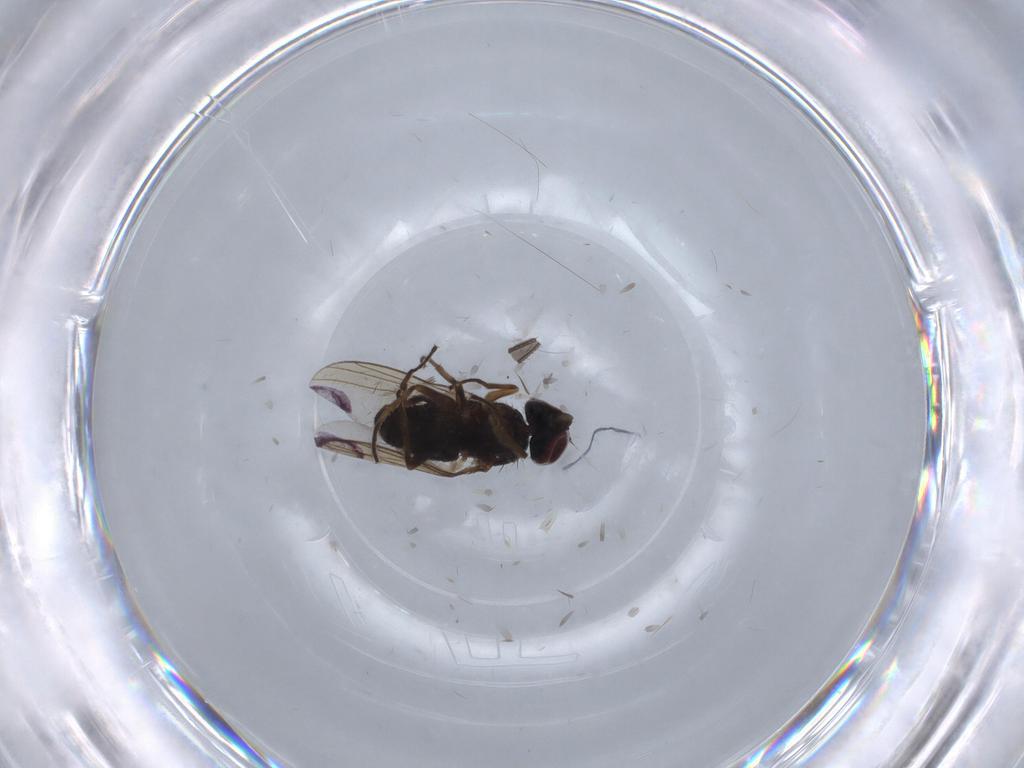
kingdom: Animalia
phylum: Arthropoda
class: Insecta
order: Diptera
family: Dolichopodidae
